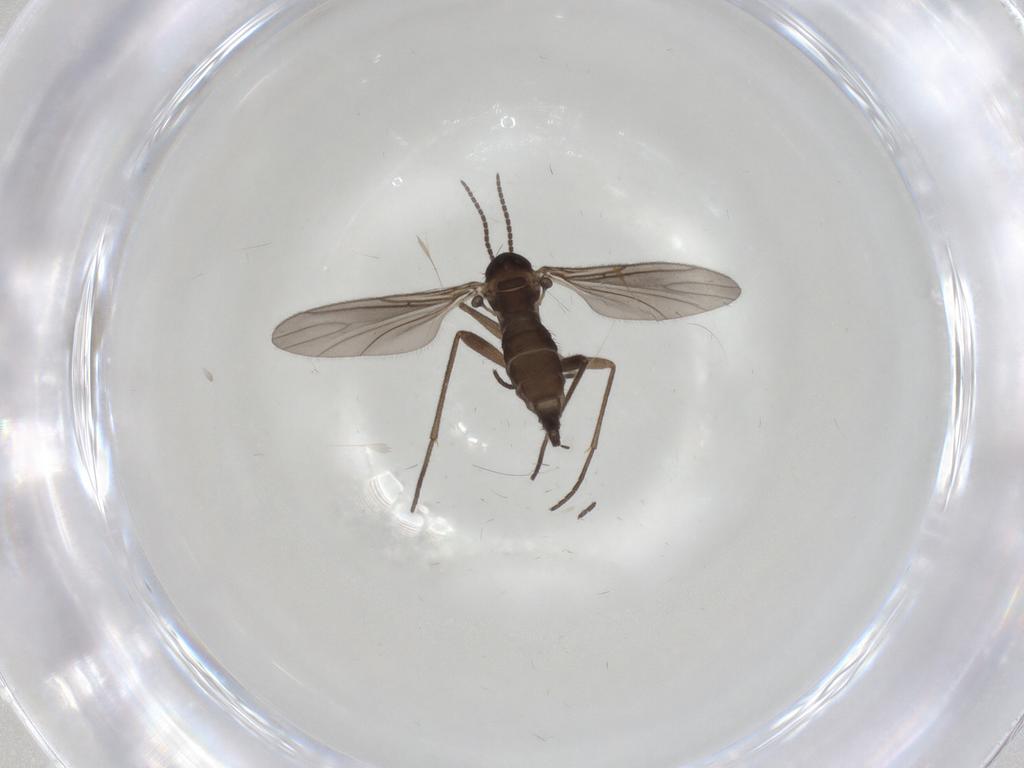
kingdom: Animalia
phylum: Arthropoda
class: Insecta
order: Diptera
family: Sciaridae
